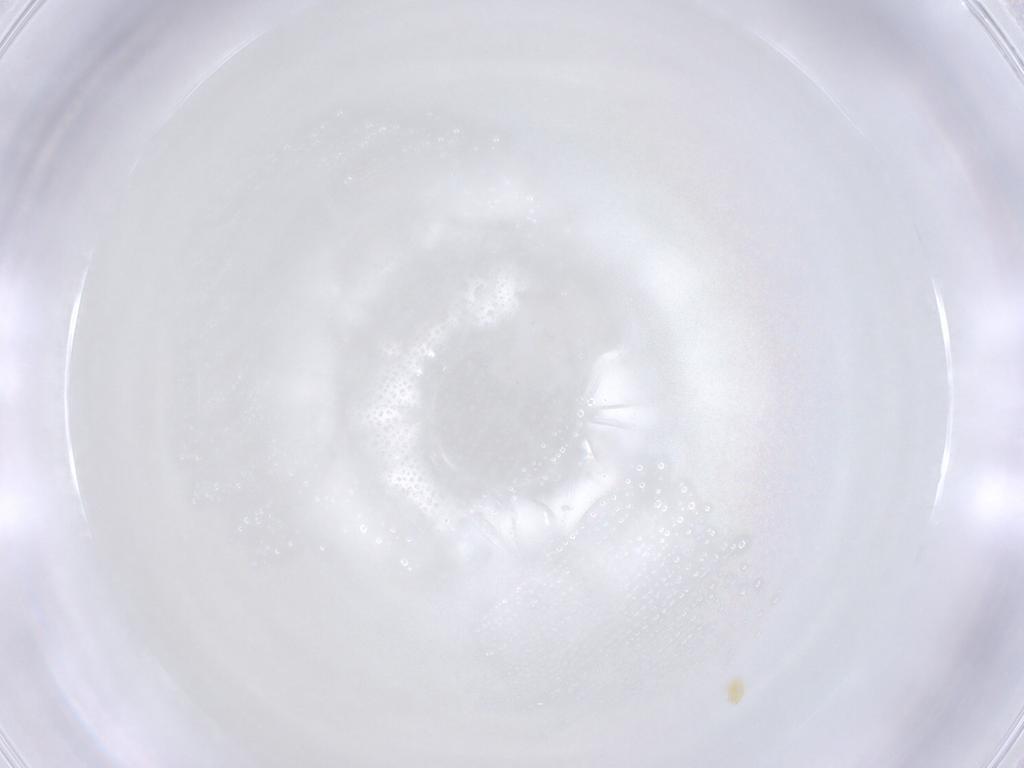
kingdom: Animalia
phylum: Arthropoda
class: Arachnida
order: Trombidiformes
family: Tetranychidae
